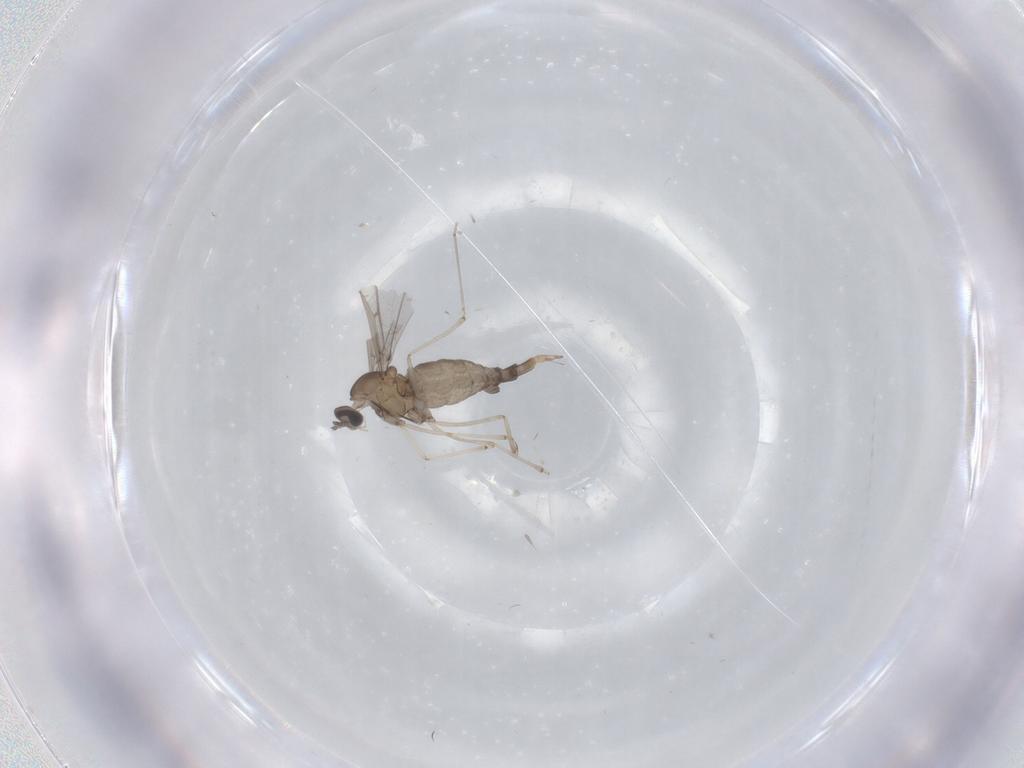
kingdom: Animalia
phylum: Arthropoda
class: Insecta
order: Diptera
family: Cecidomyiidae
